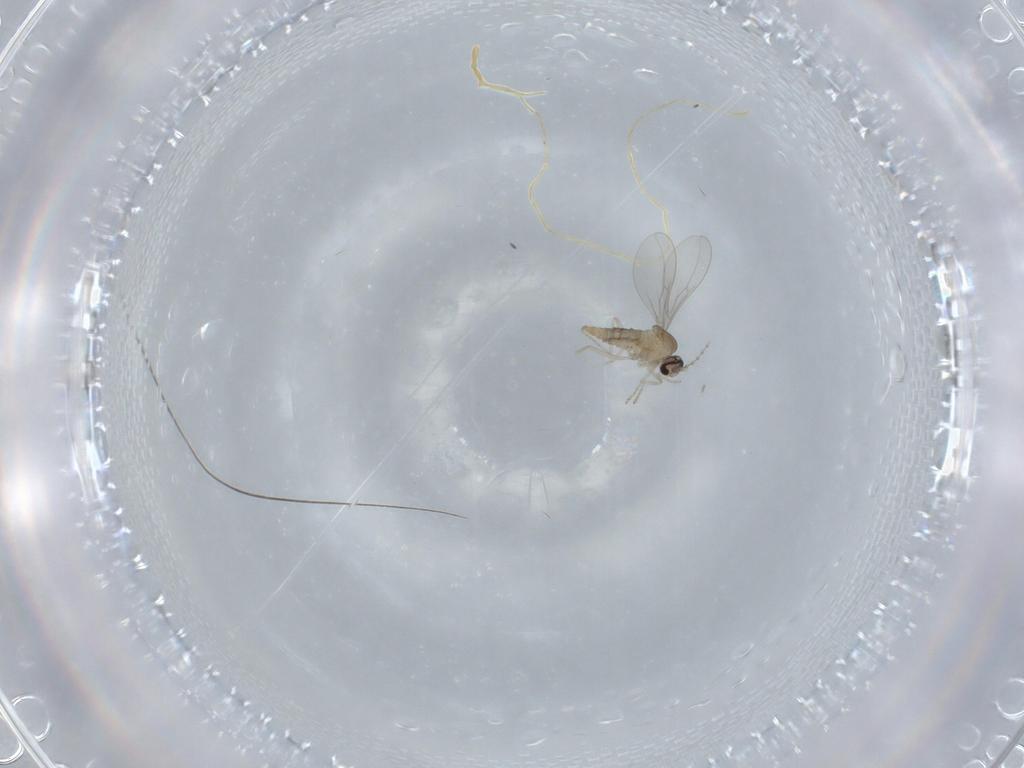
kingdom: Animalia
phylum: Arthropoda
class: Insecta
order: Diptera
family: Cecidomyiidae
